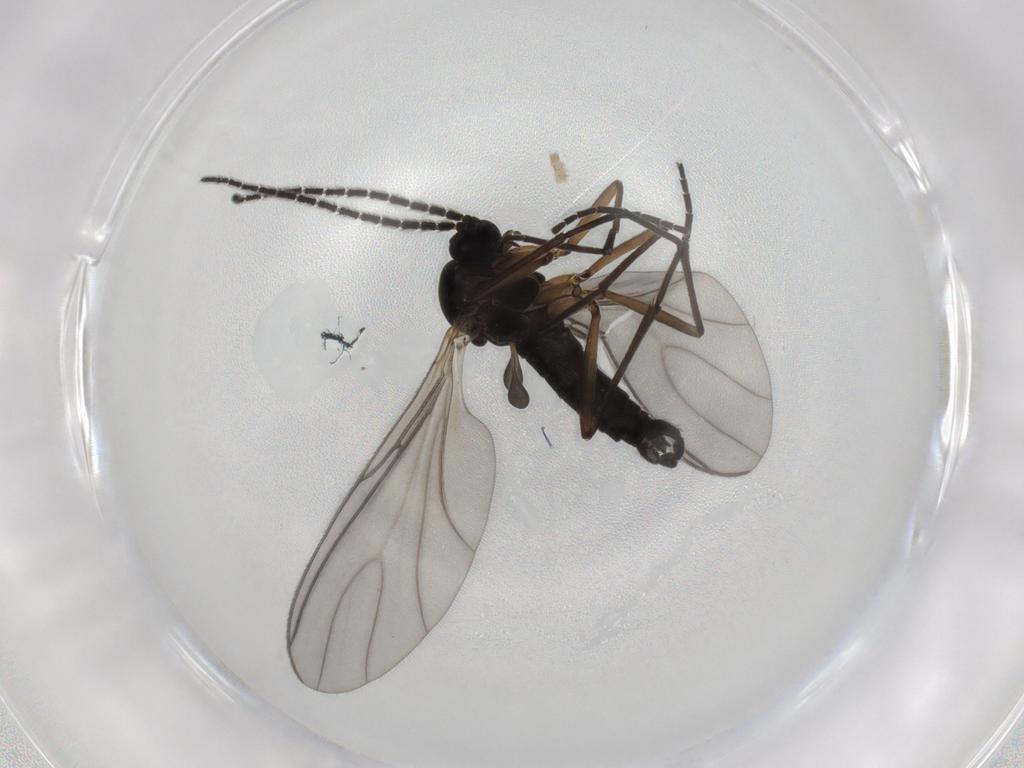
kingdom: Animalia
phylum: Arthropoda
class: Insecta
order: Diptera
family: Sciaridae
